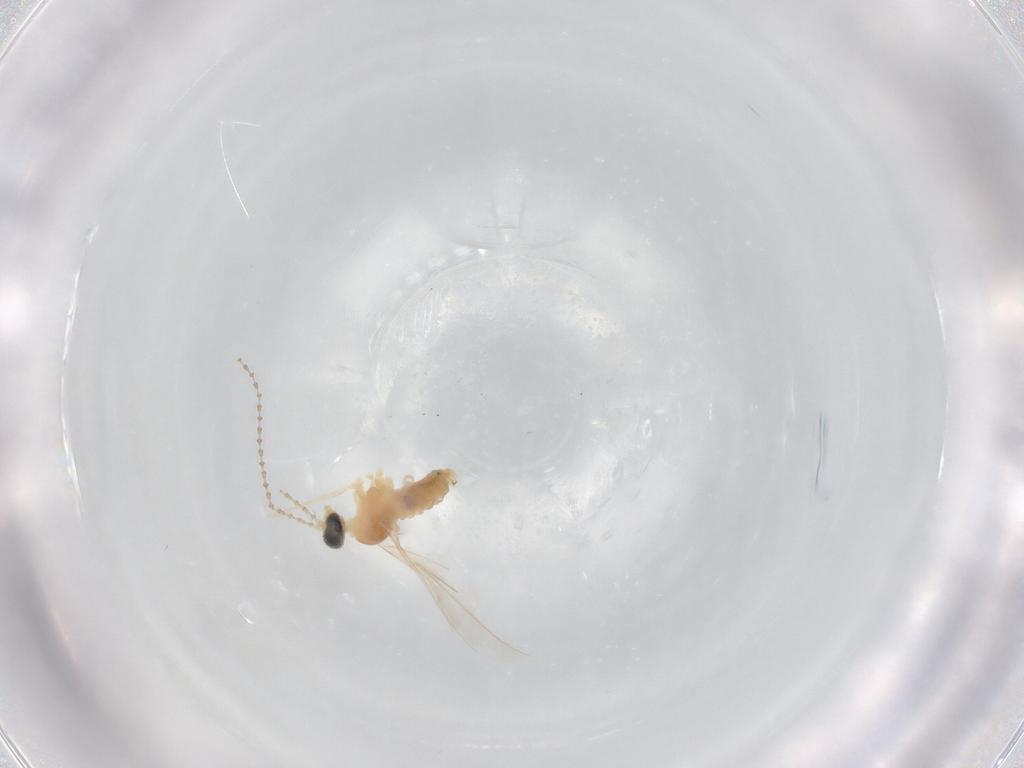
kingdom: Animalia
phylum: Arthropoda
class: Insecta
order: Diptera
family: Cecidomyiidae
